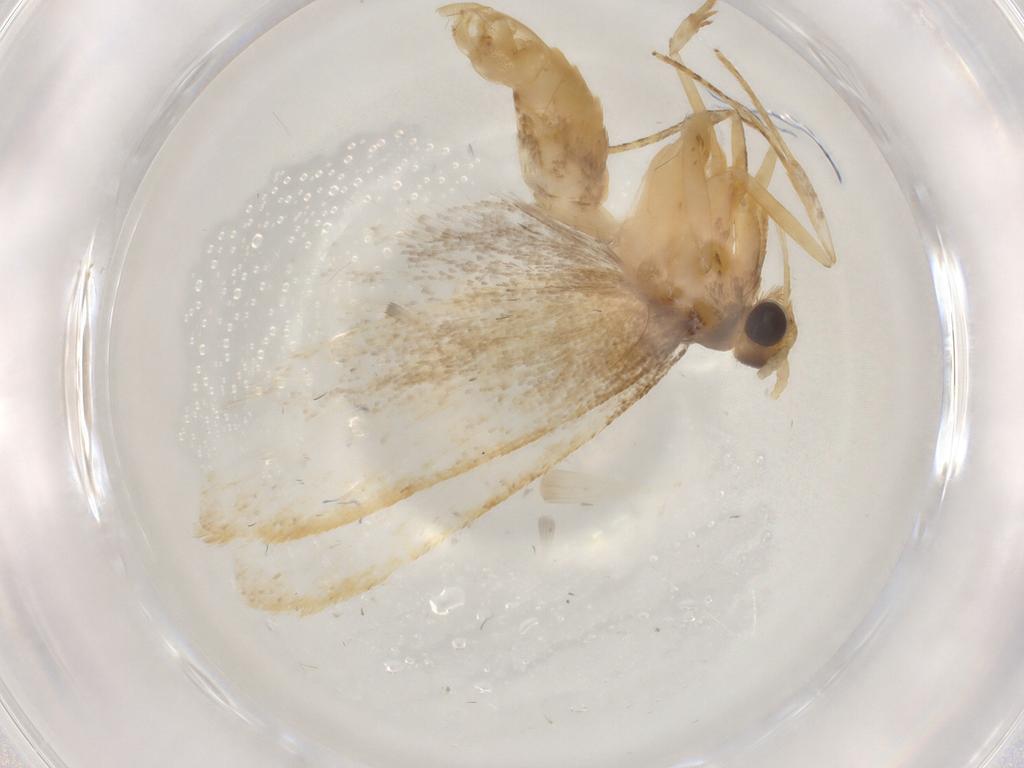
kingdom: Animalia
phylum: Arthropoda
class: Insecta
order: Lepidoptera
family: Lecithoceridae
